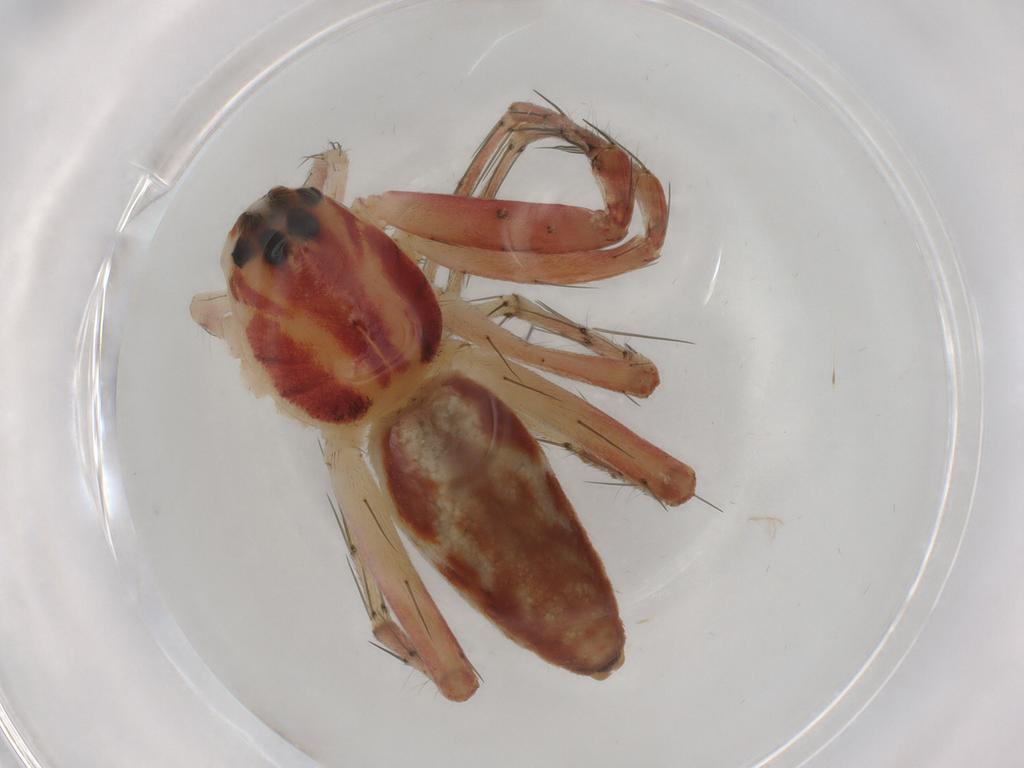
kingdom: Animalia
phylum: Arthropoda
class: Arachnida
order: Araneae
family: Oxyopidae
